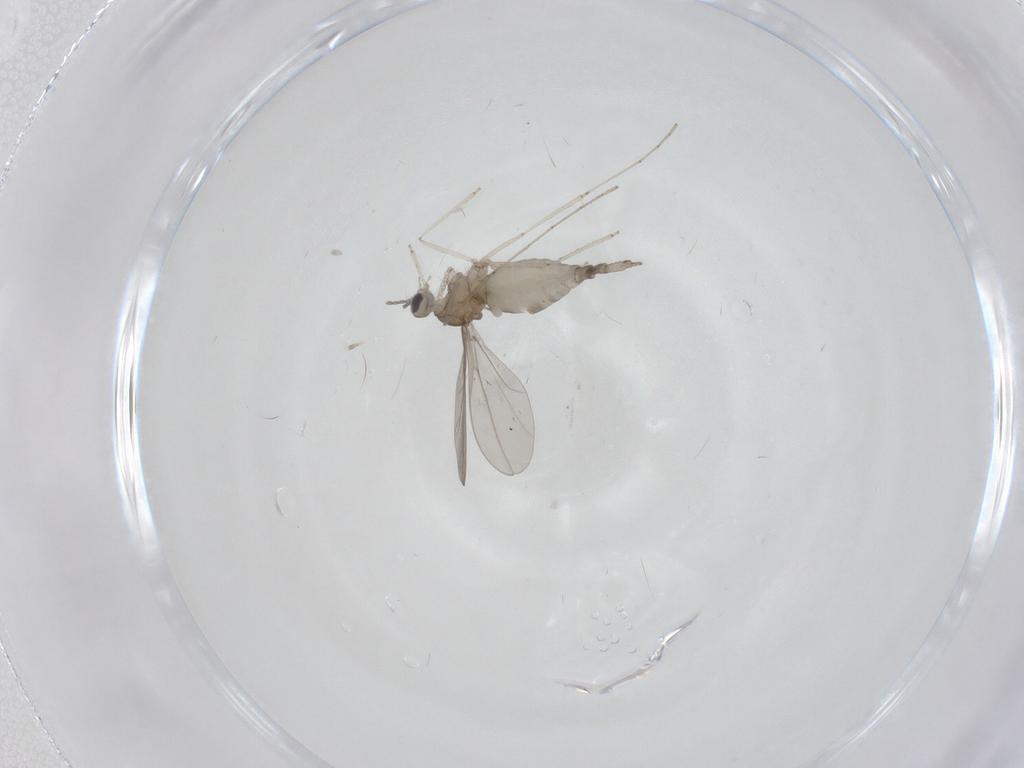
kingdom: Animalia
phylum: Arthropoda
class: Insecta
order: Diptera
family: Cecidomyiidae
